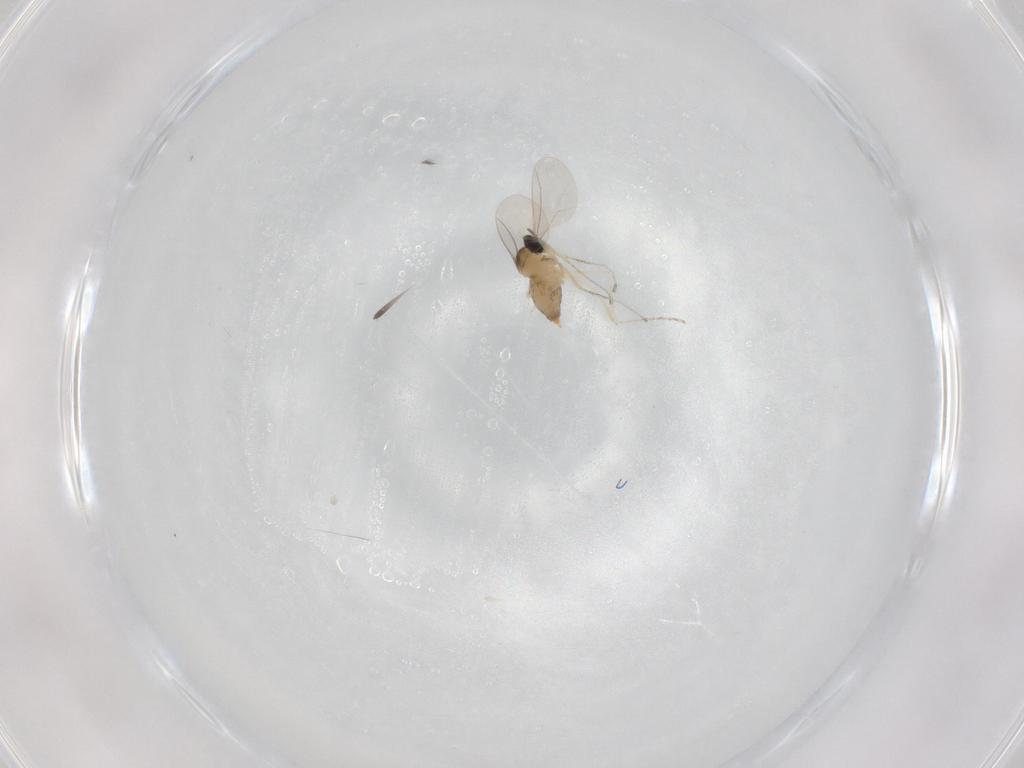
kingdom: Animalia
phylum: Arthropoda
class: Insecta
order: Diptera
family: Cecidomyiidae
